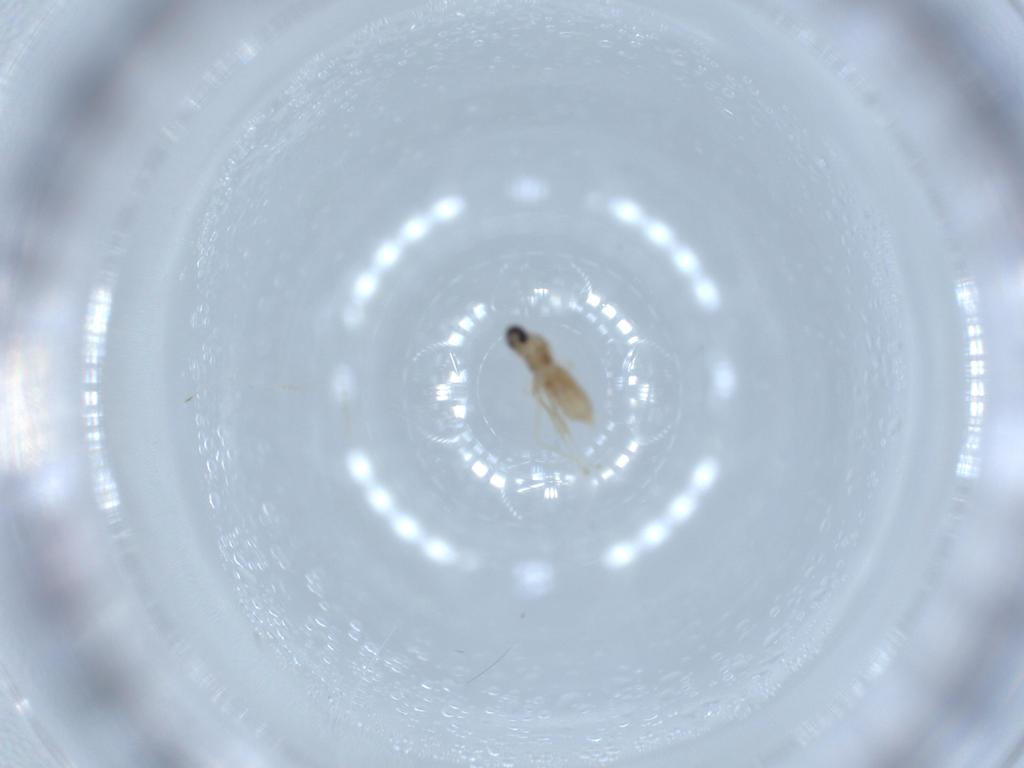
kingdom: Animalia
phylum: Arthropoda
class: Insecta
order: Diptera
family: Cecidomyiidae
